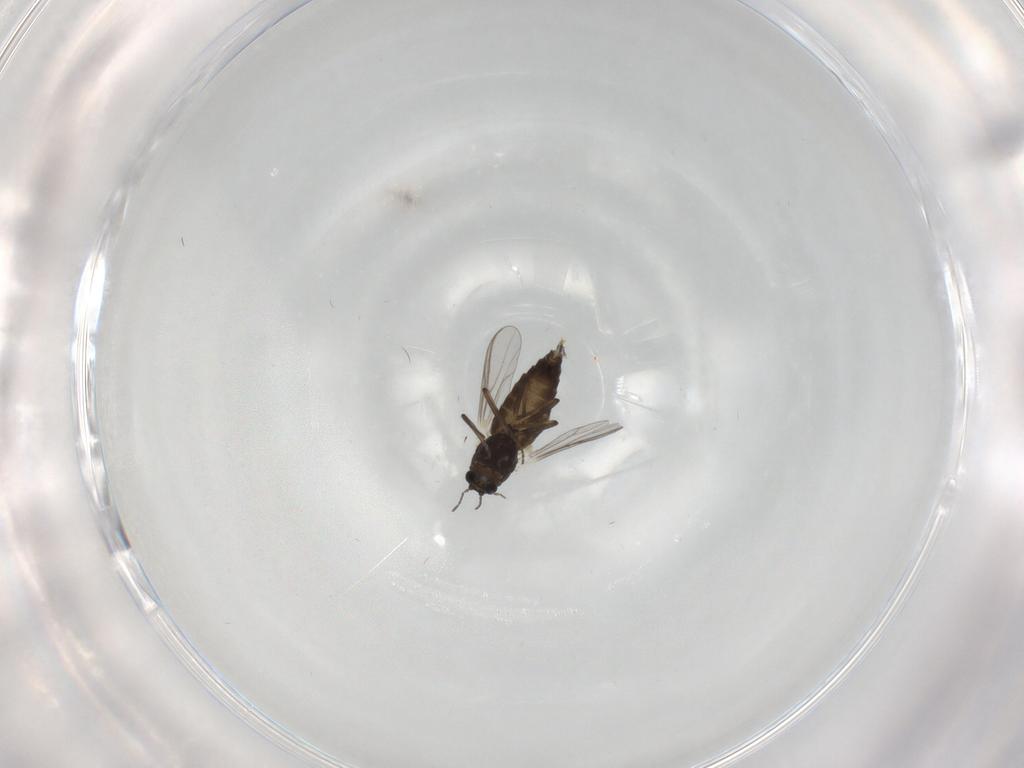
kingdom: Animalia
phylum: Arthropoda
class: Insecta
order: Diptera
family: Chironomidae
